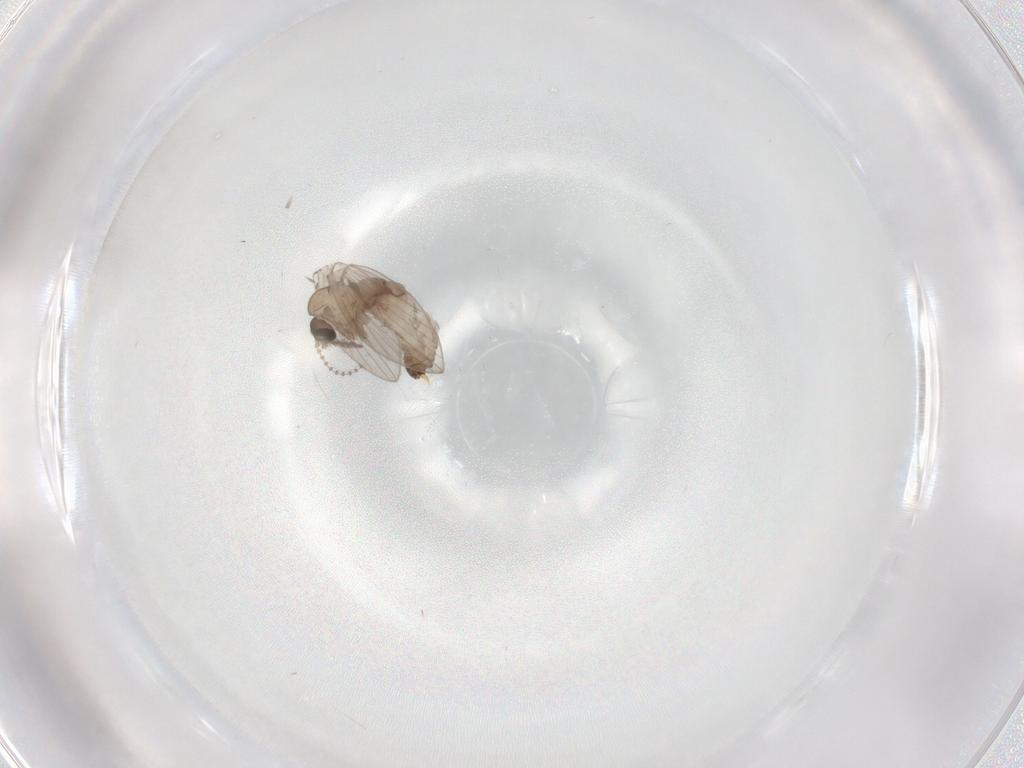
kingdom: Animalia
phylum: Arthropoda
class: Insecta
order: Diptera
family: Psychodidae
